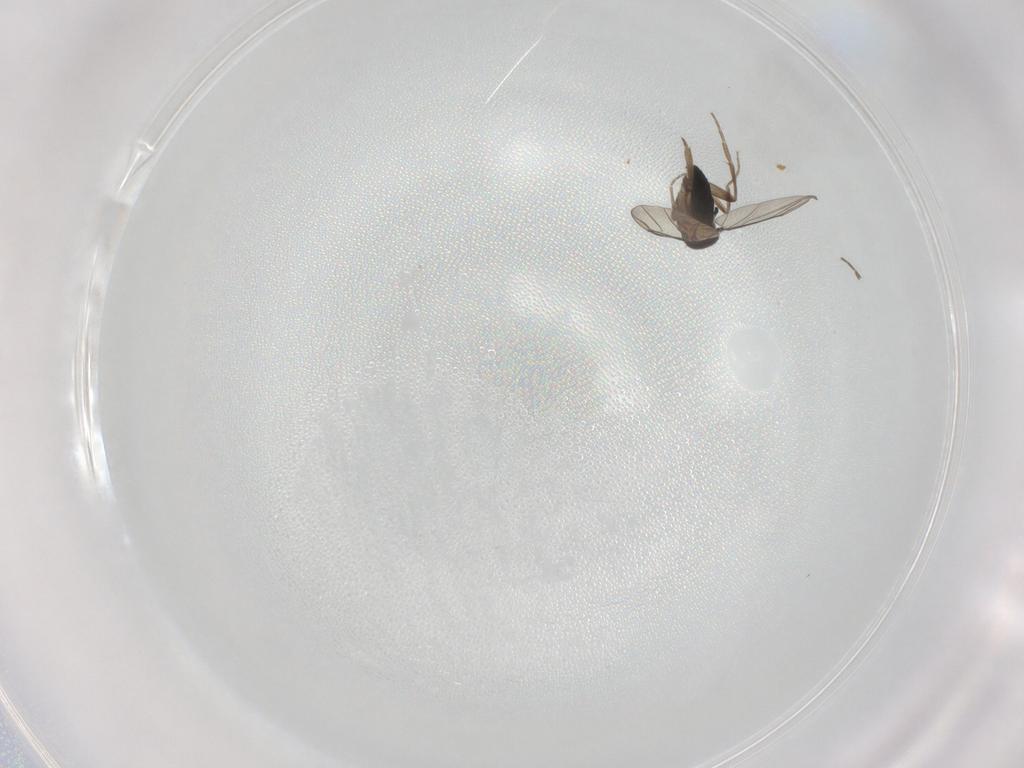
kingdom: Animalia
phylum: Arthropoda
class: Insecta
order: Diptera
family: Phoridae
